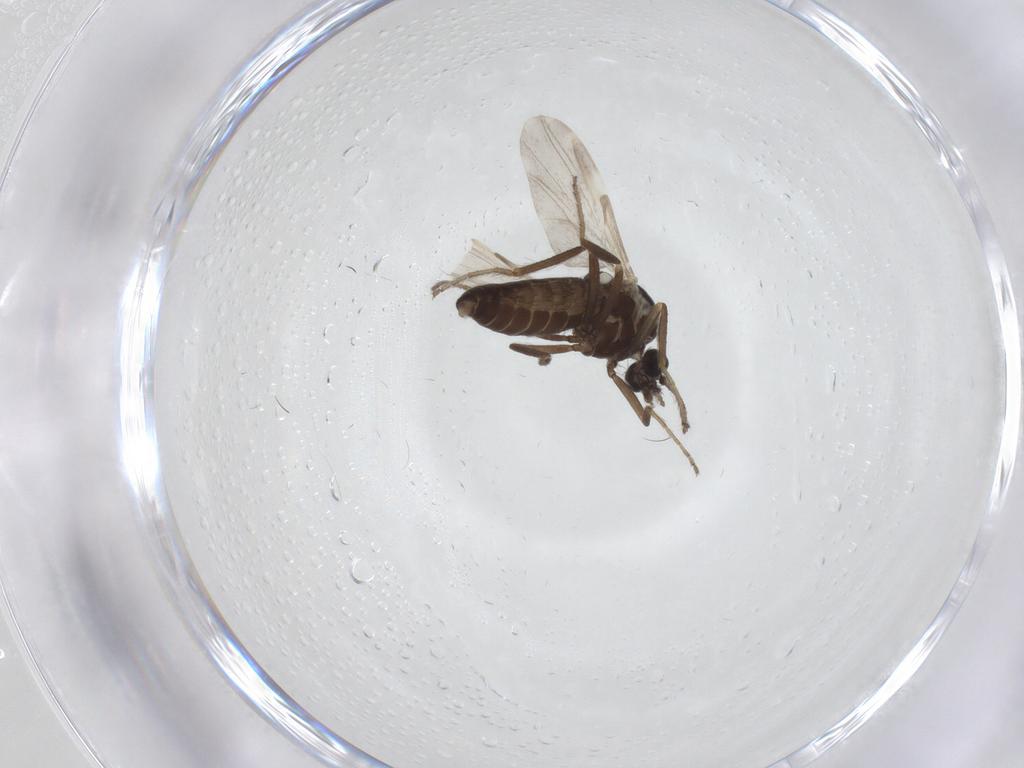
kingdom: Animalia
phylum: Arthropoda
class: Insecta
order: Diptera
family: Ceratopogonidae
